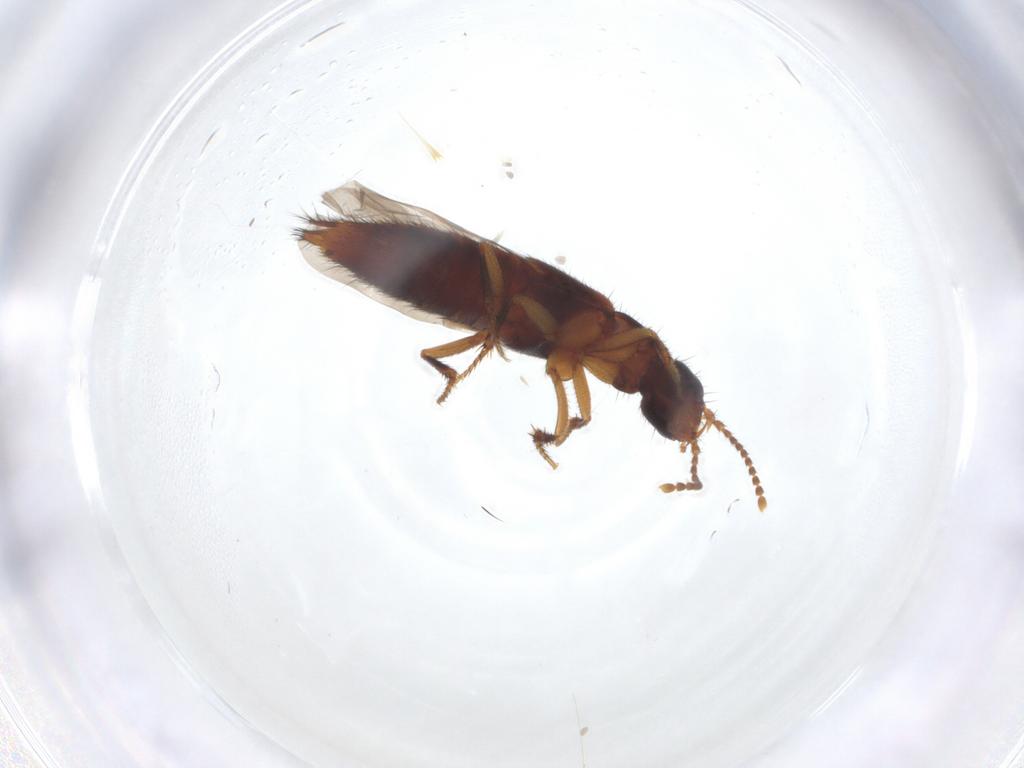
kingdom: Animalia
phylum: Arthropoda
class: Insecta
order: Coleoptera
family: Staphylinidae
